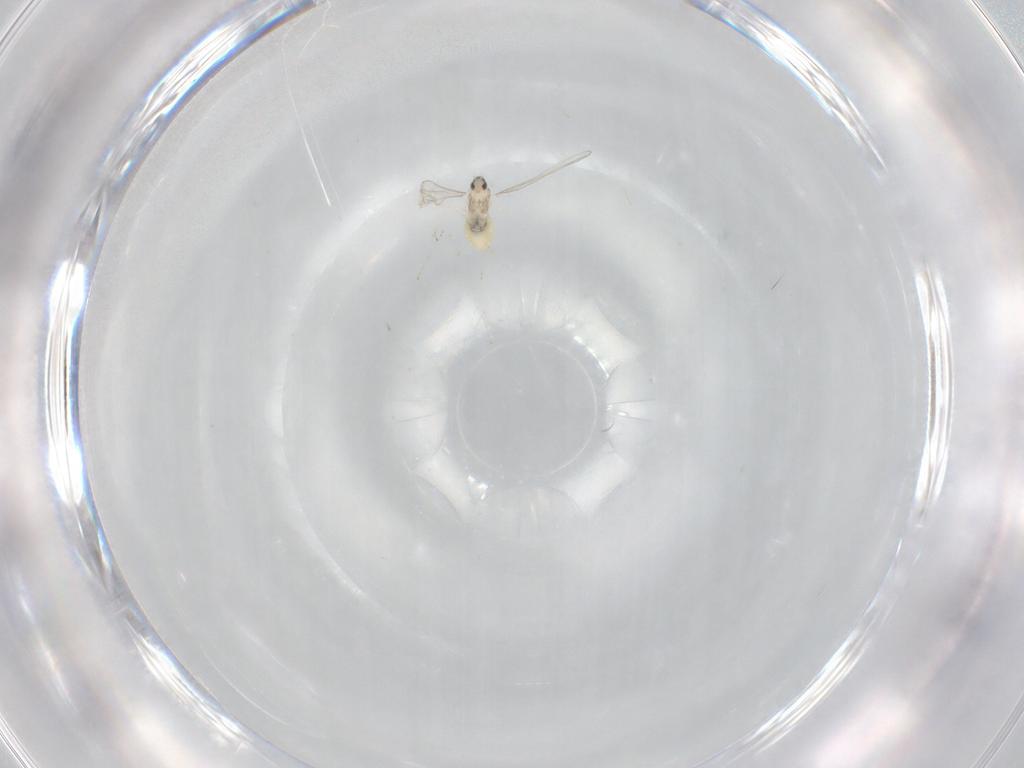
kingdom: Animalia
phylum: Arthropoda
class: Insecta
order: Diptera
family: Cecidomyiidae
